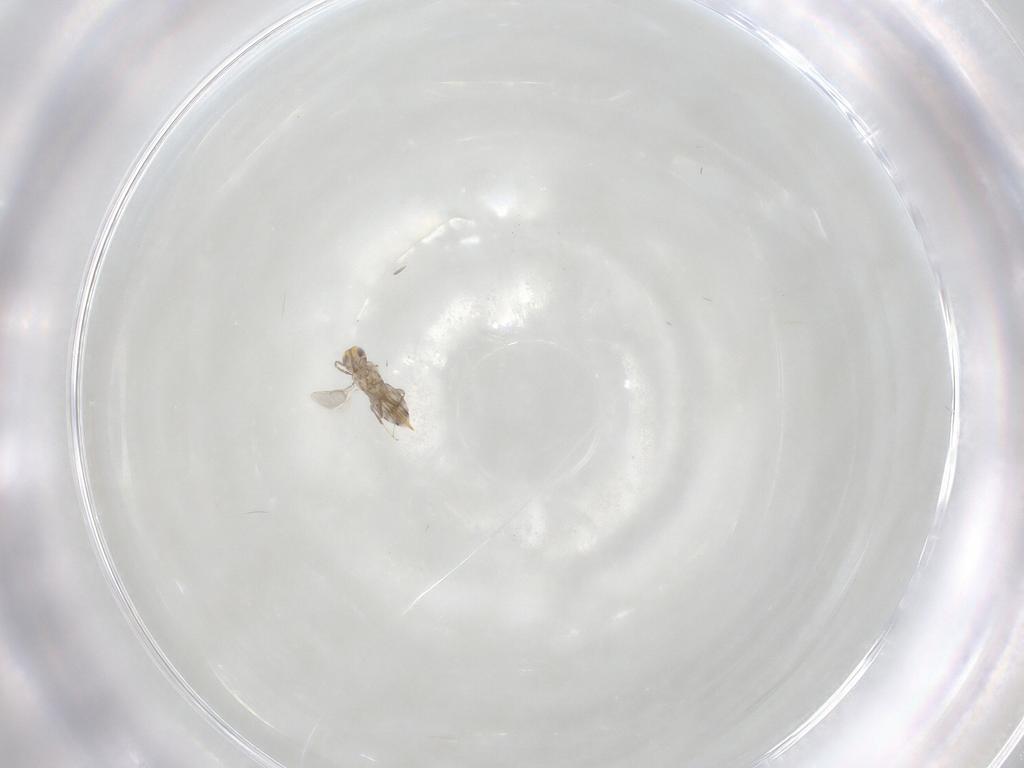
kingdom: Animalia
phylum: Arthropoda
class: Insecta
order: Hymenoptera
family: Aphelinidae
